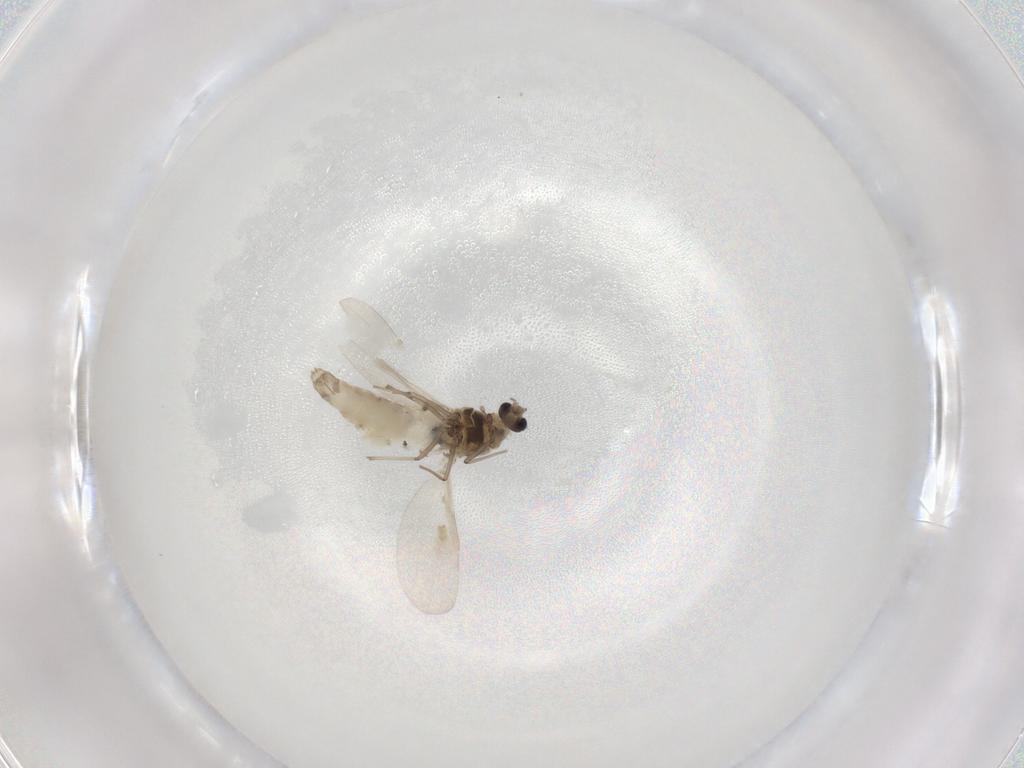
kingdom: Animalia
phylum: Arthropoda
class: Insecta
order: Diptera
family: Chironomidae
